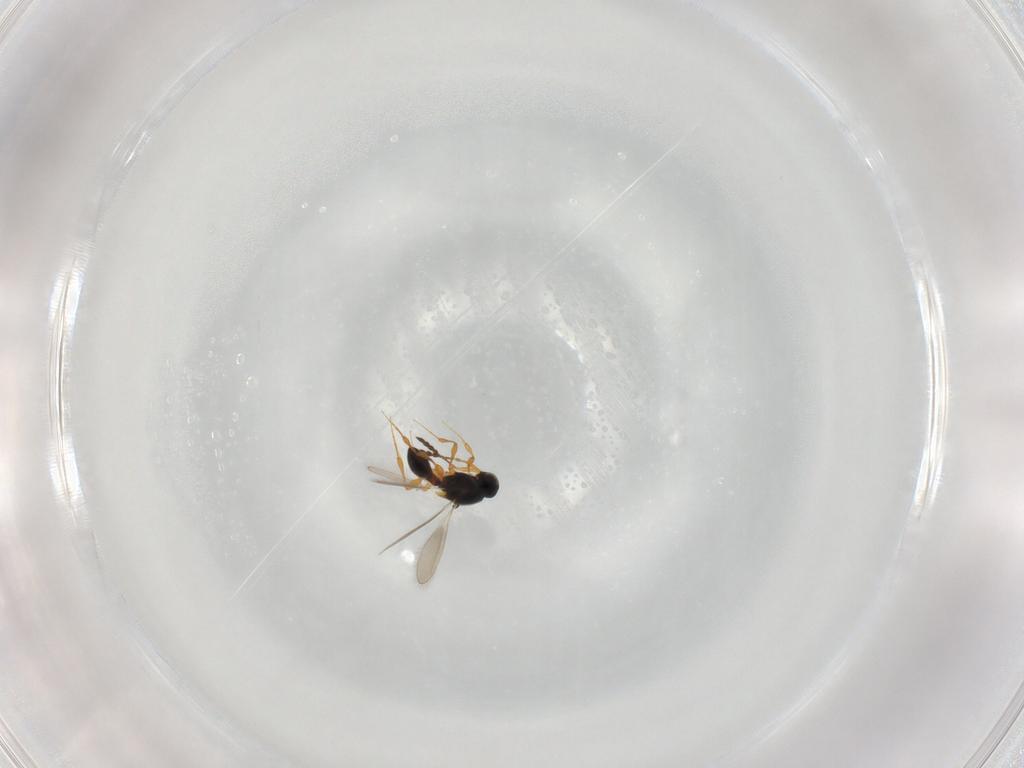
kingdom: Animalia
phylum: Arthropoda
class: Insecta
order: Hymenoptera
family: Platygastridae
